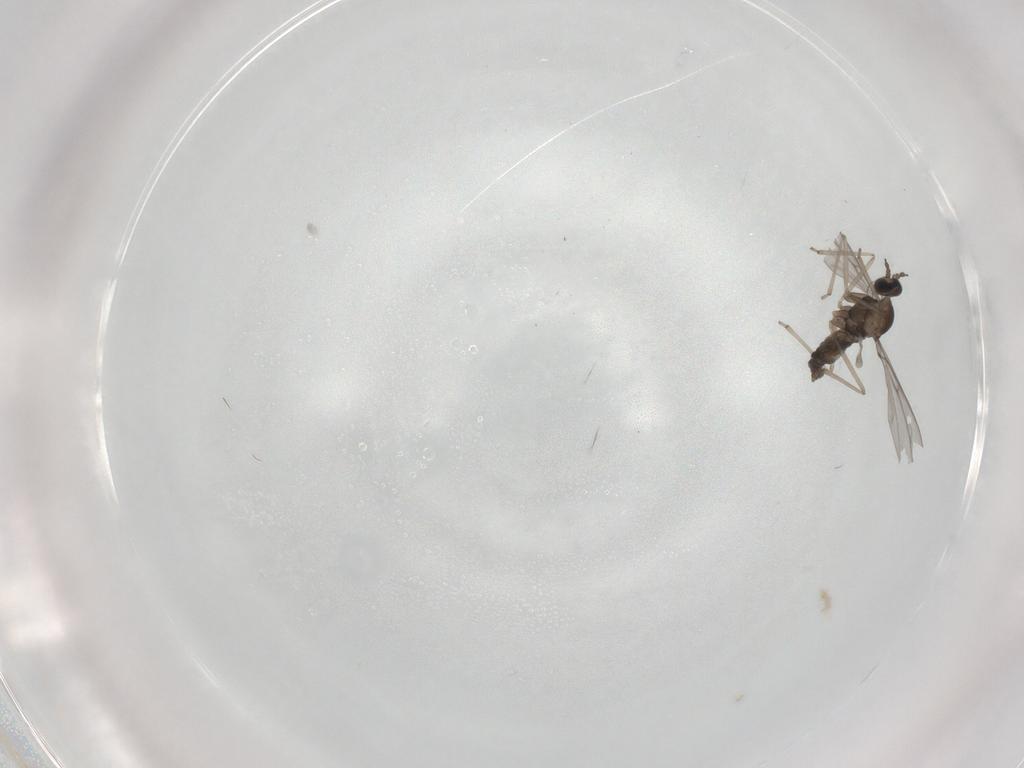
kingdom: Animalia
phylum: Arthropoda
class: Insecta
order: Diptera
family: Cecidomyiidae
